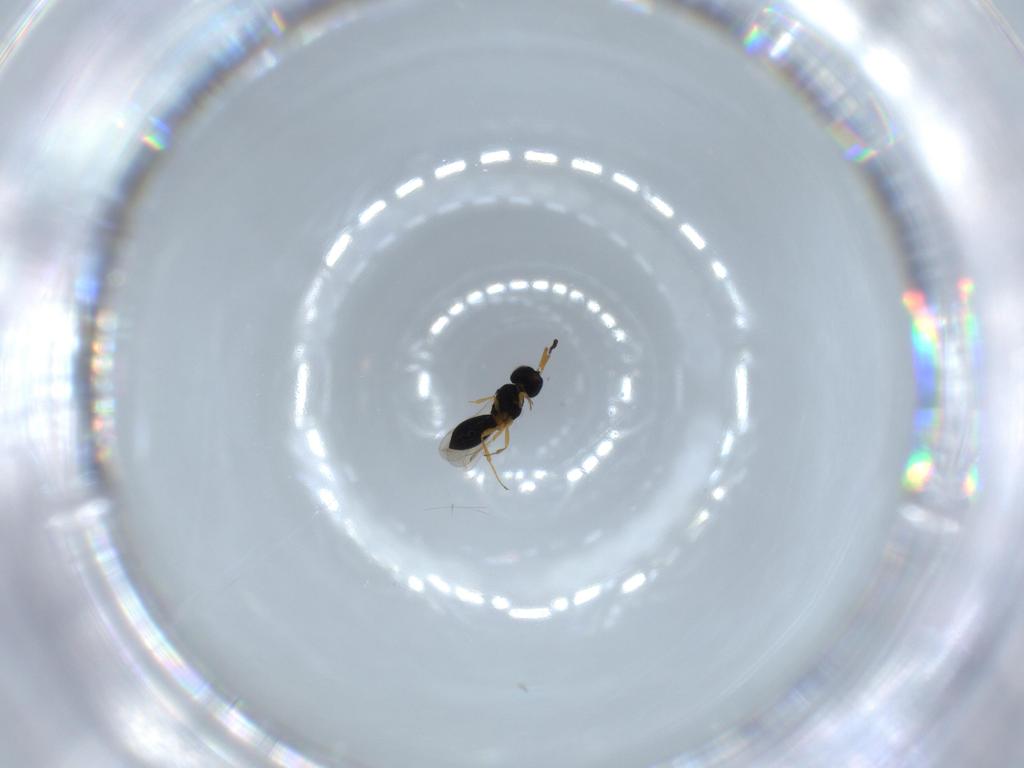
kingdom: Animalia
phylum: Arthropoda
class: Insecta
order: Hymenoptera
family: Scelionidae
